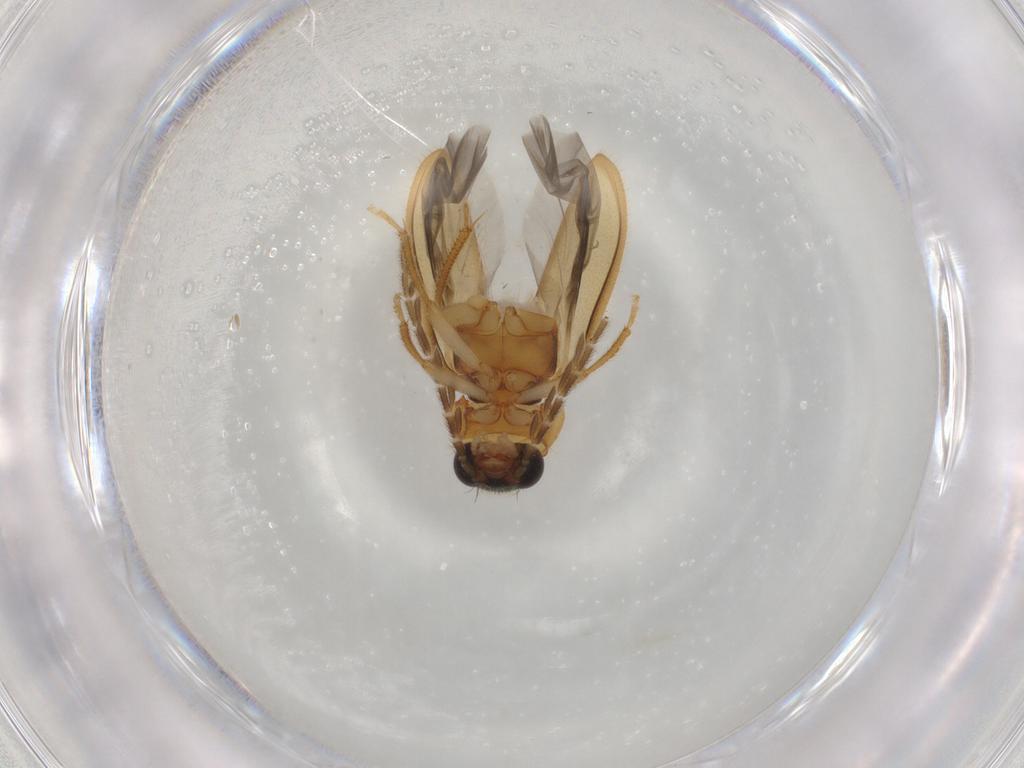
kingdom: Animalia
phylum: Arthropoda
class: Insecta
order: Coleoptera
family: Ptilodactylidae
